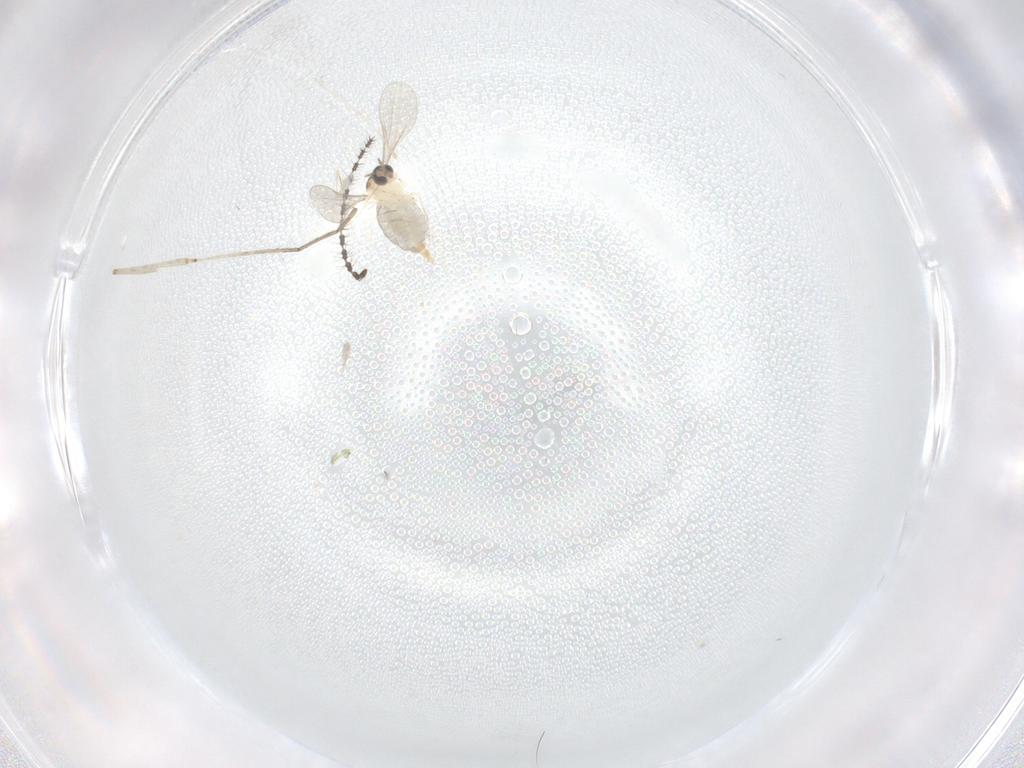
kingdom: Animalia
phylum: Arthropoda
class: Insecta
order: Diptera
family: Cecidomyiidae
